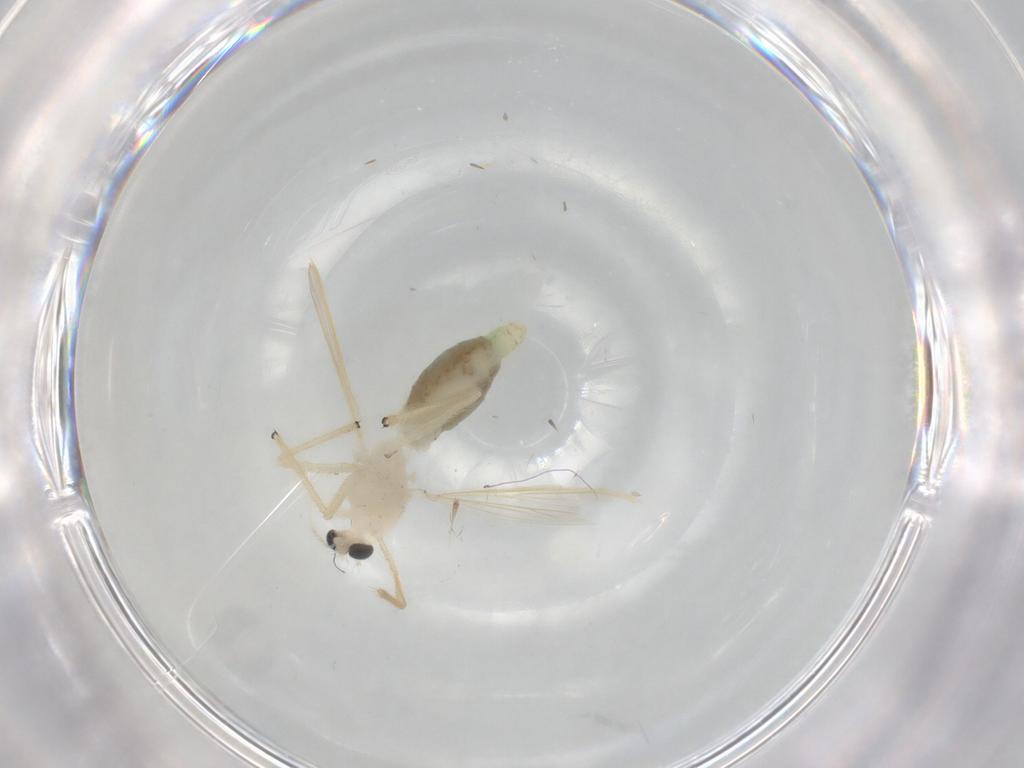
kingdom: Animalia
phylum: Arthropoda
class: Insecta
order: Diptera
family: Chironomidae
